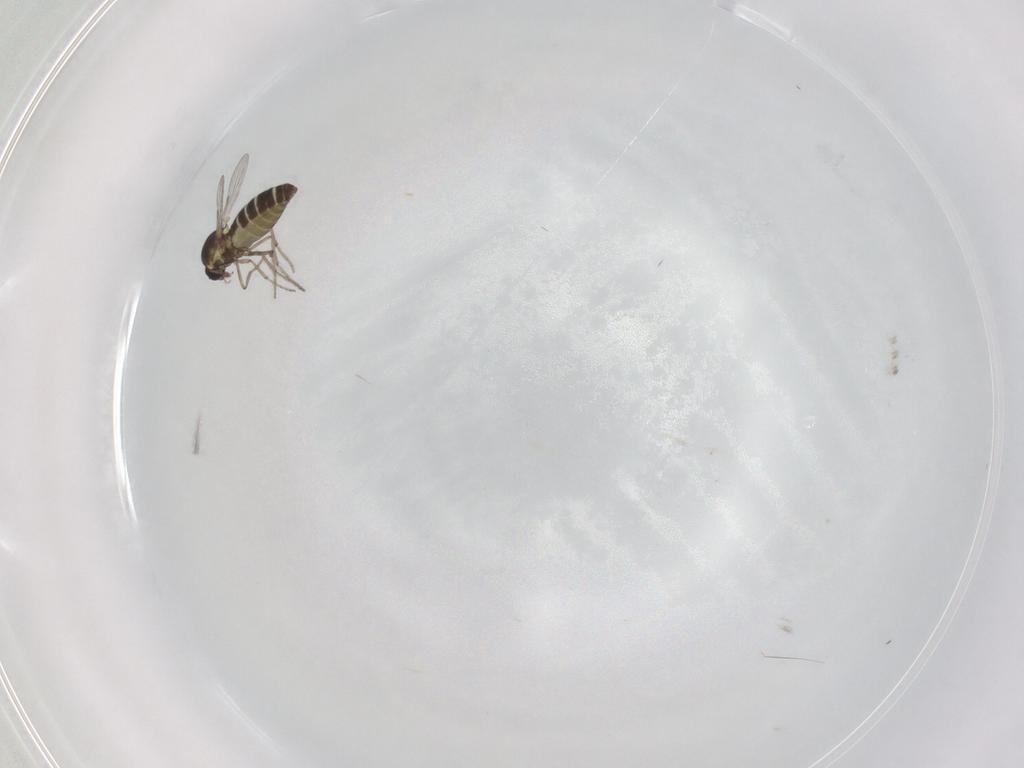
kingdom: Animalia
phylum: Arthropoda
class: Insecta
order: Diptera
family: Ceratopogonidae
